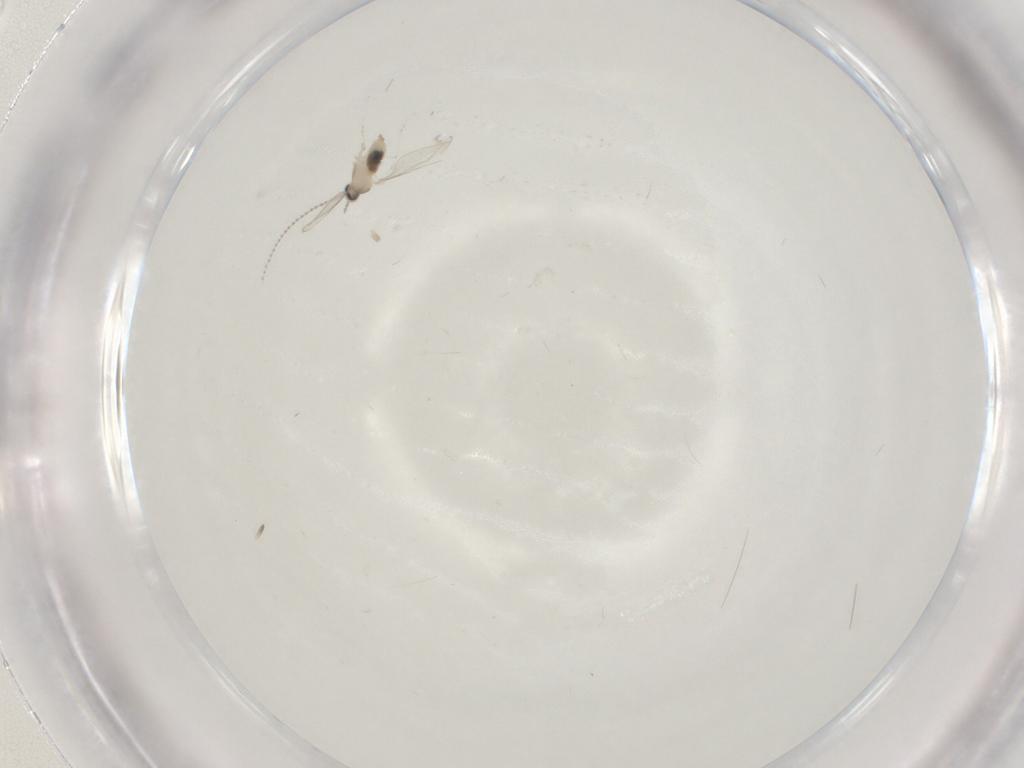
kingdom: Animalia
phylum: Arthropoda
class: Insecta
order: Diptera
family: Cecidomyiidae
